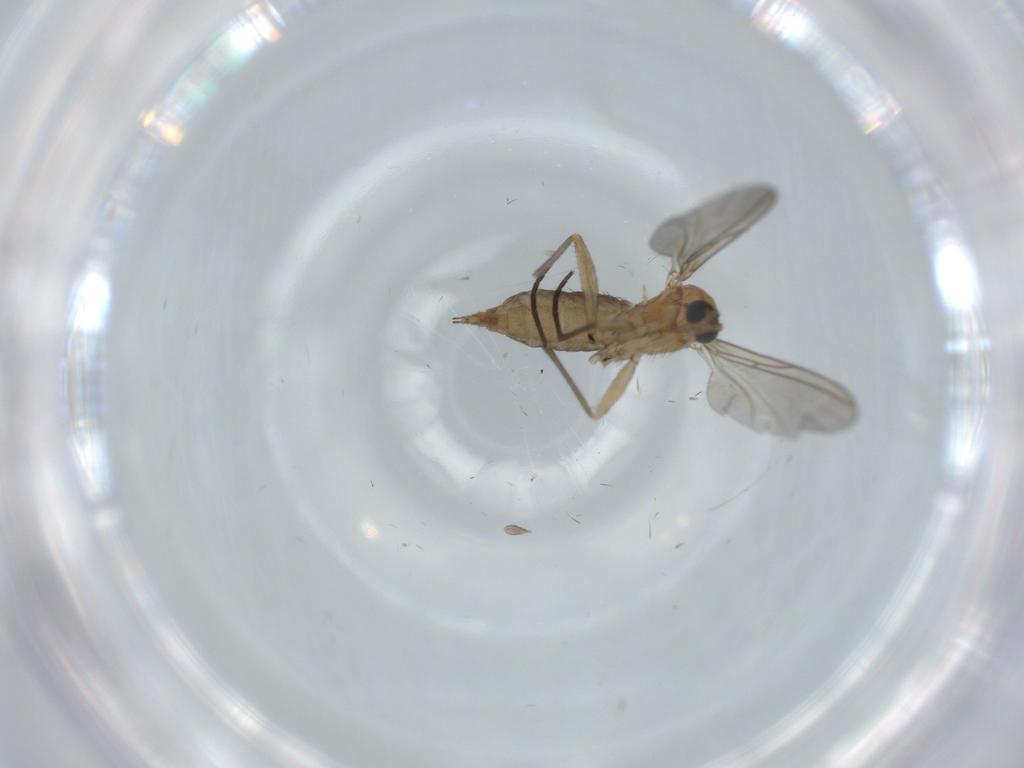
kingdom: Animalia
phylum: Arthropoda
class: Insecta
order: Diptera
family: Sciaridae
